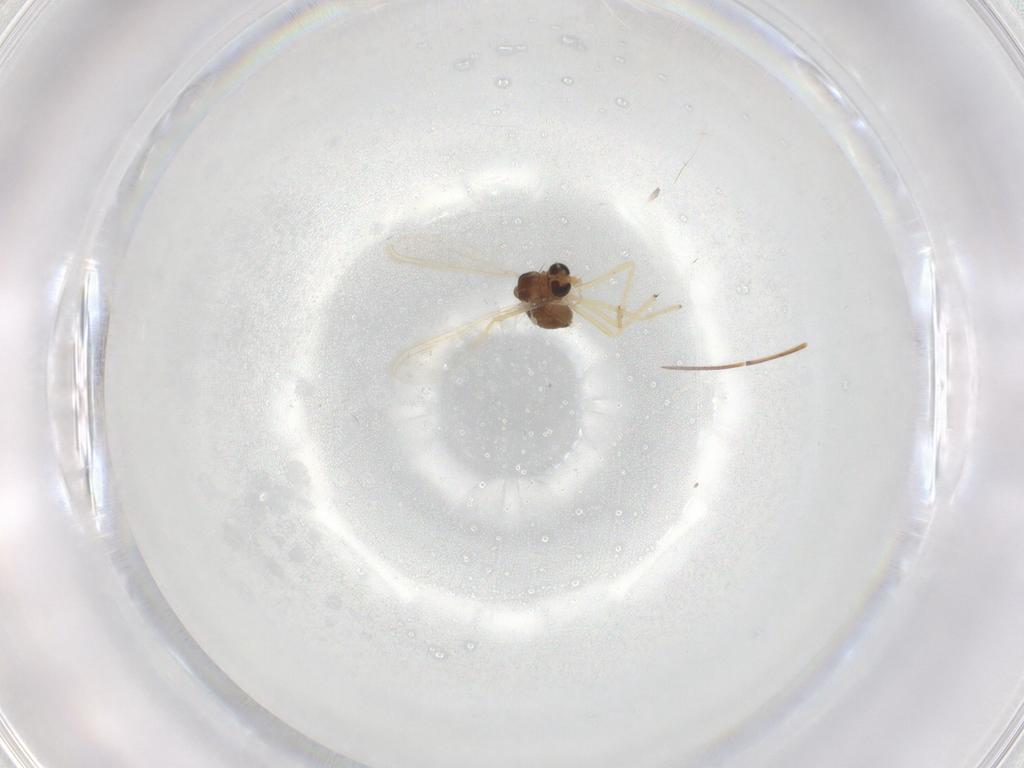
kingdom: Animalia
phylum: Arthropoda
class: Insecta
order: Diptera
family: Chironomidae
